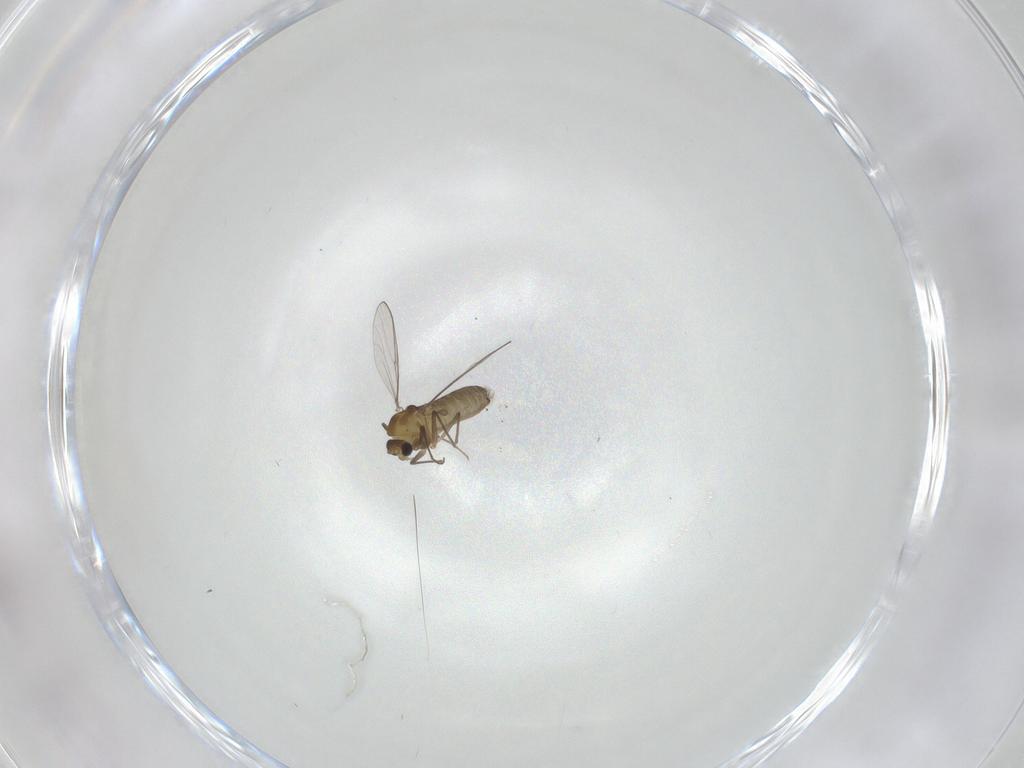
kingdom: Animalia
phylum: Arthropoda
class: Insecta
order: Diptera
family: Chironomidae
